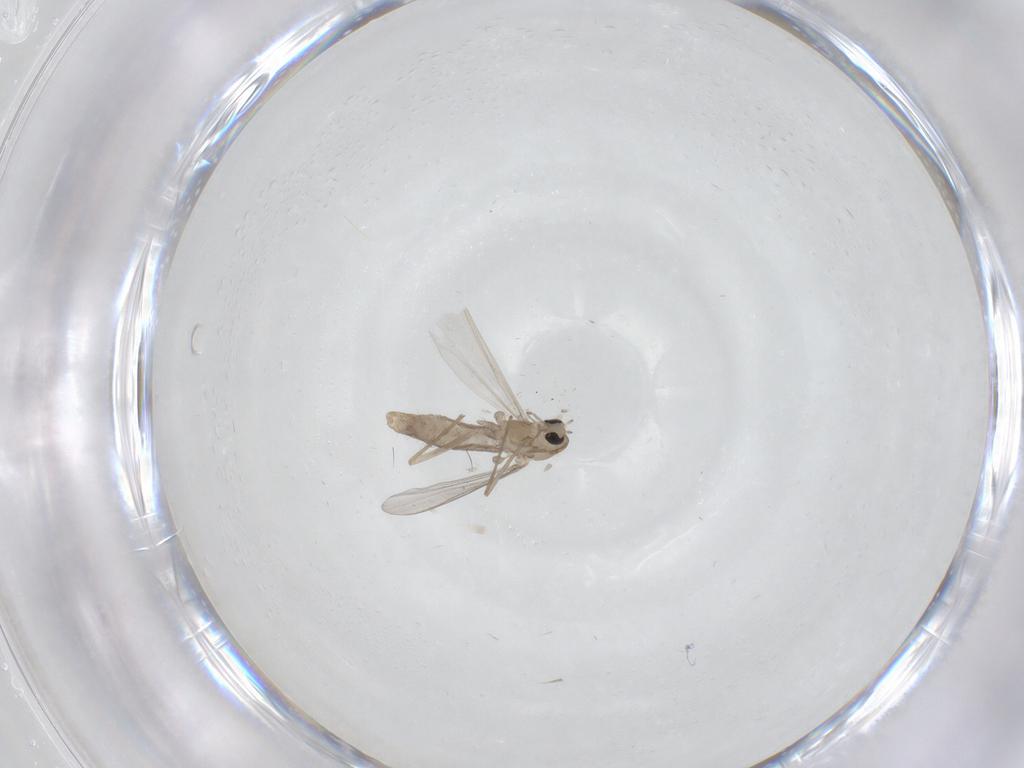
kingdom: Animalia
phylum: Arthropoda
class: Insecta
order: Diptera
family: Chironomidae
